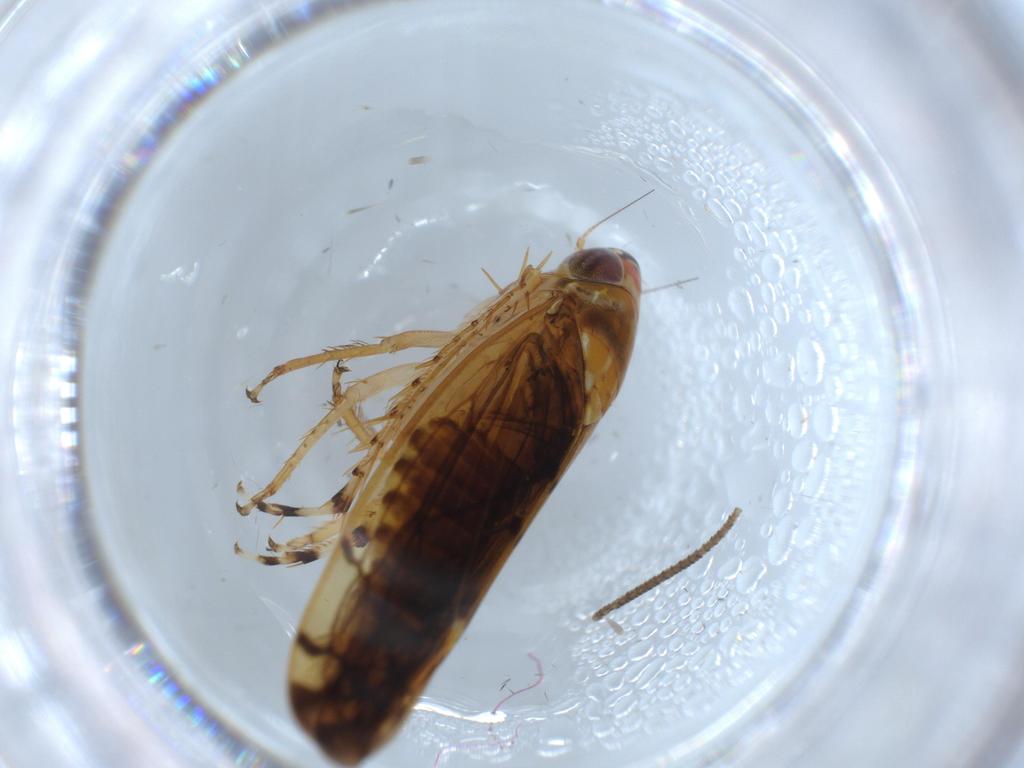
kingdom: Animalia
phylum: Arthropoda
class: Insecta
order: Hemiptera
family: Cicadellidae
